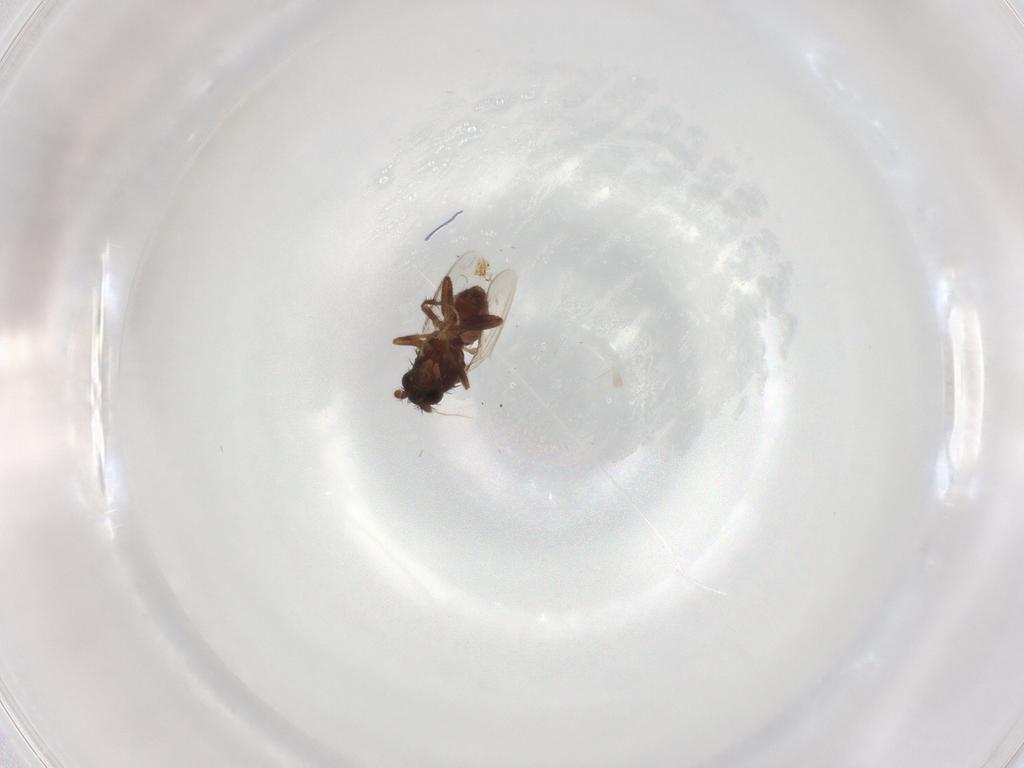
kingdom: Animalia
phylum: Arthropoda
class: Insecta
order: Diptera
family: Sphaeroceridae
